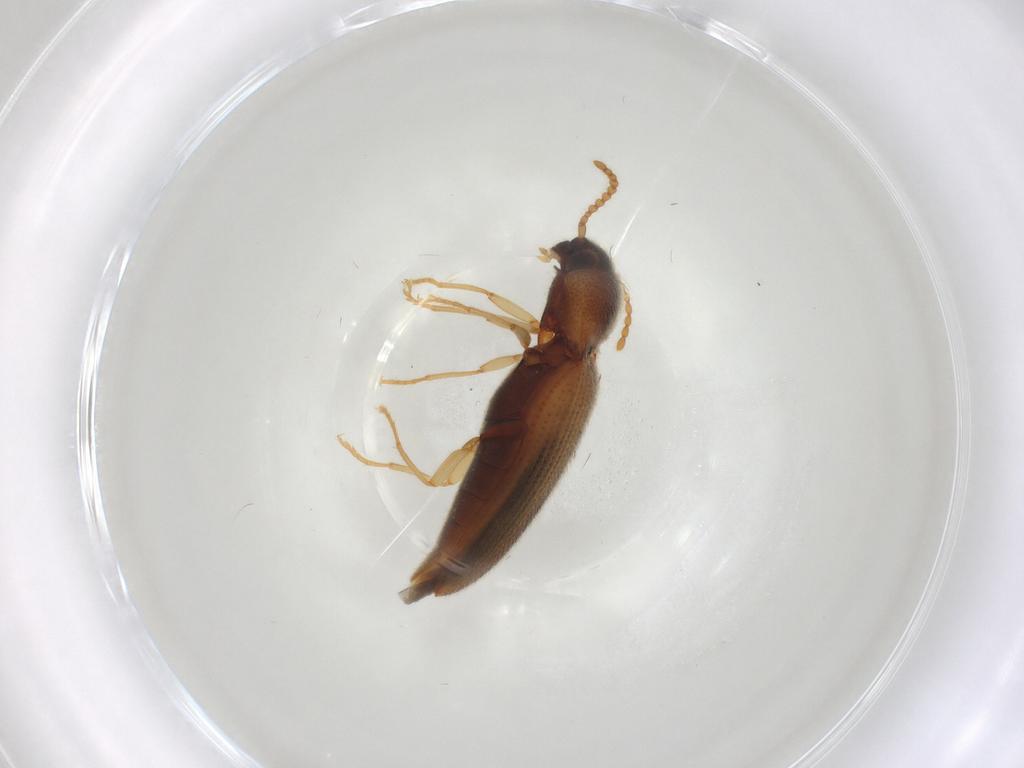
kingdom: Animalia
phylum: Arthropoda
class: Insecta
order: Coleoptera
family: Elateridae
